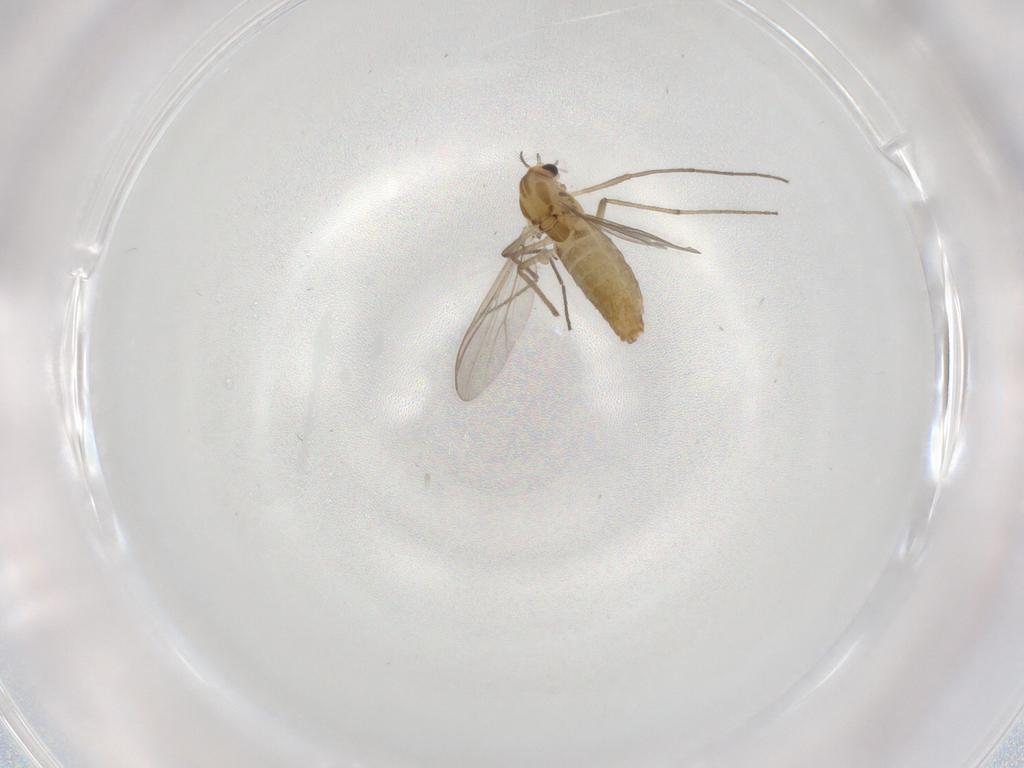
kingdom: Animalia
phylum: Arthropoda
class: Insecta
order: Diptera
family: Chironomidae
